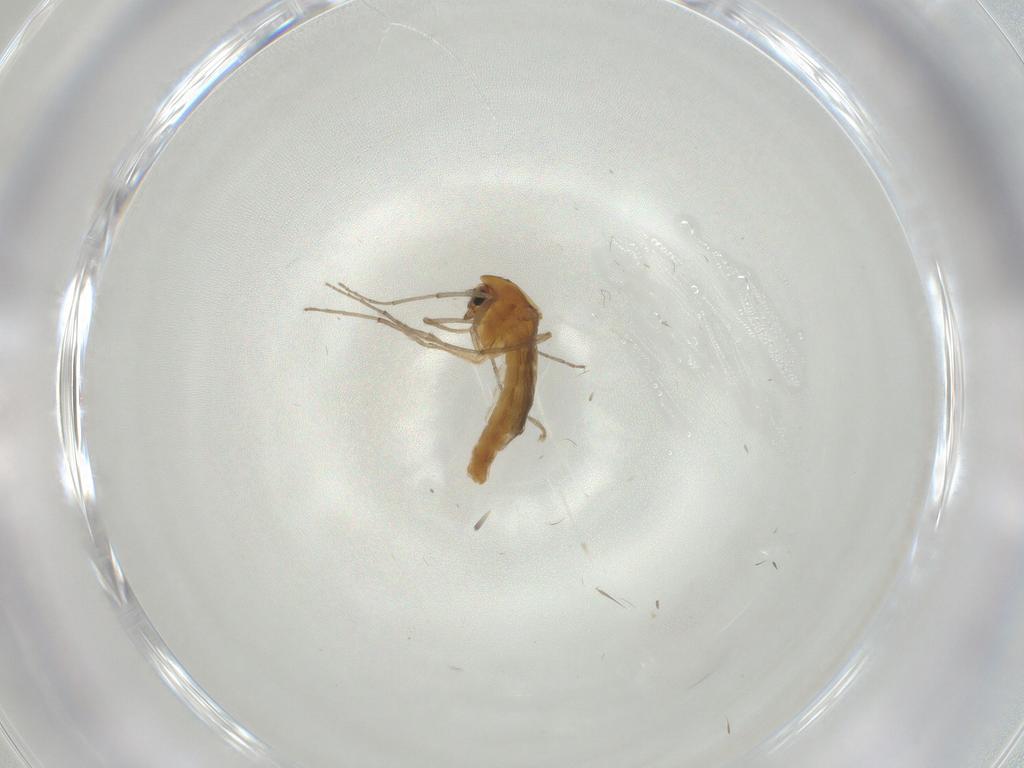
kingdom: Animalia
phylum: Arthropoda
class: Insecta
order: Diptera
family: Chironomidae
